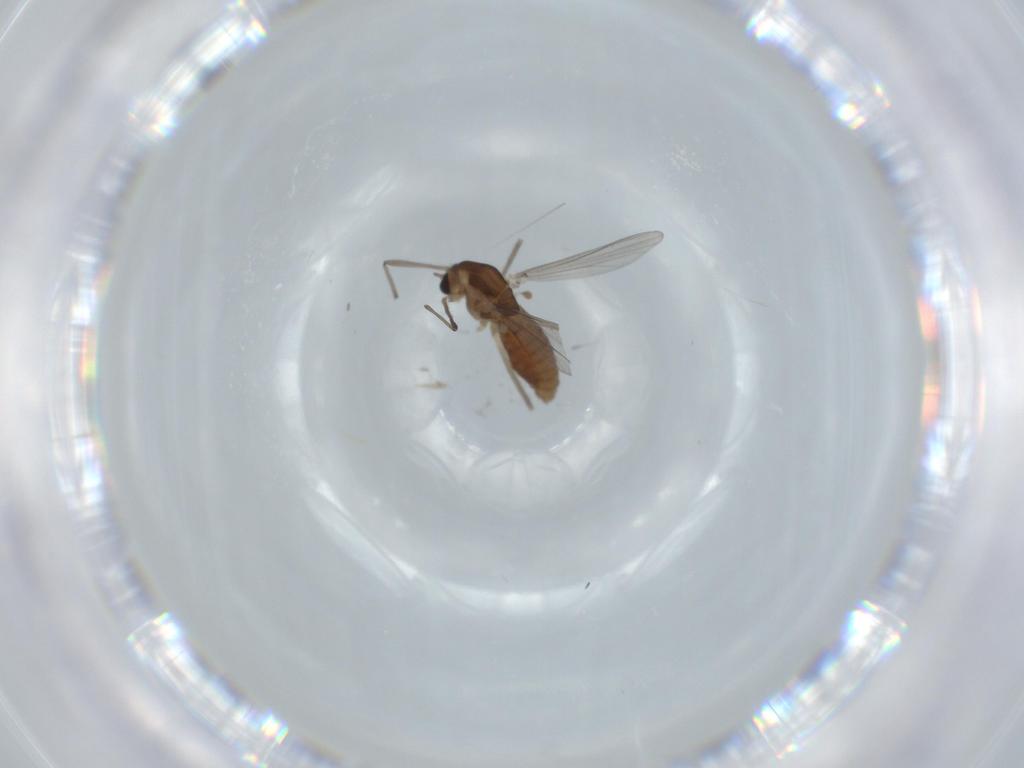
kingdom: Animalia
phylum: Arthropoda
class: Insecta
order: Diptera
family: Chironomidae
